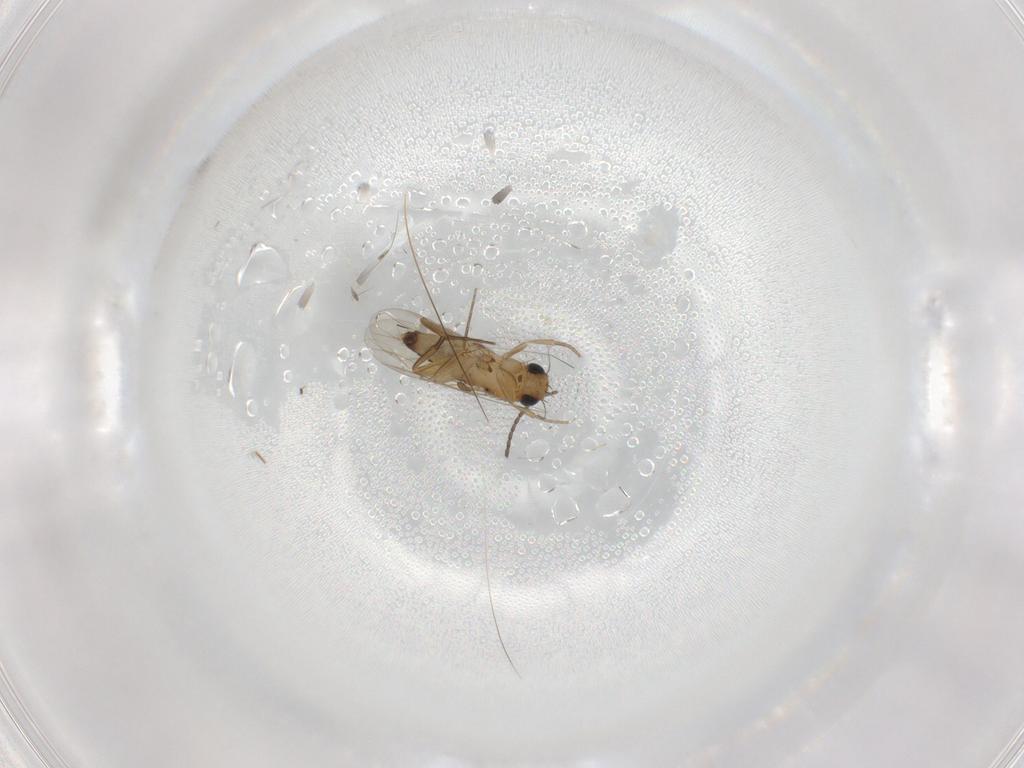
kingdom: Animalia
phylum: Arthropoda
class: Insecta
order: Diptera
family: Phoridae
